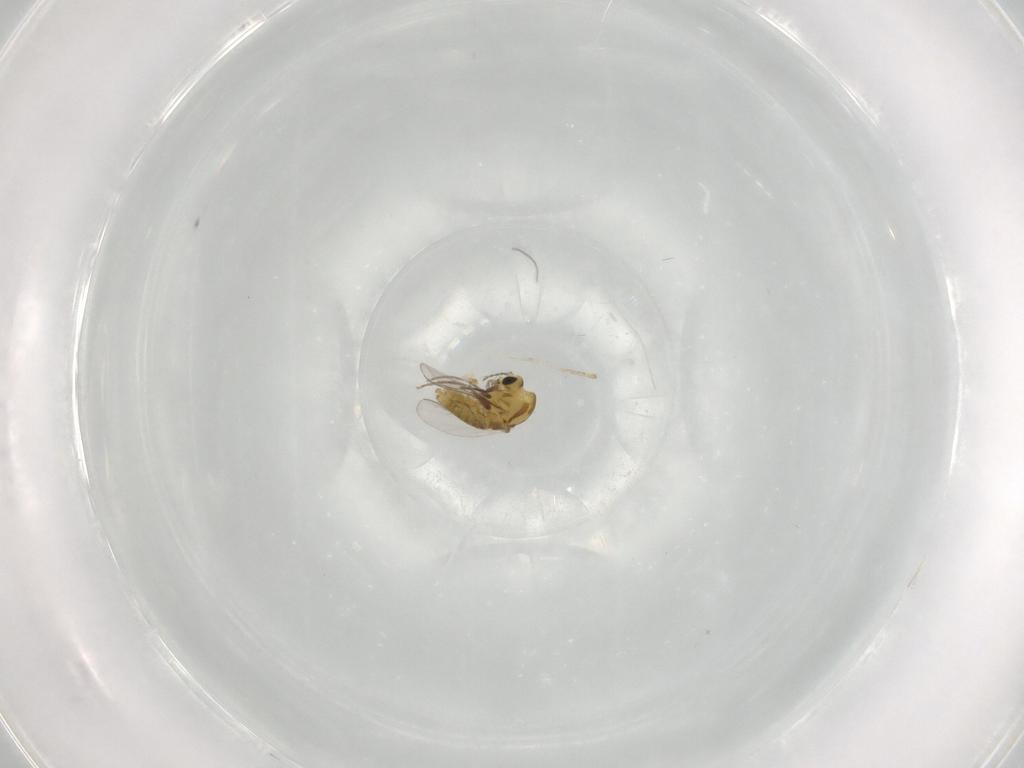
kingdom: Animalia
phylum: Arthropoda
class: Insecta
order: Diptera
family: Chironomidae
